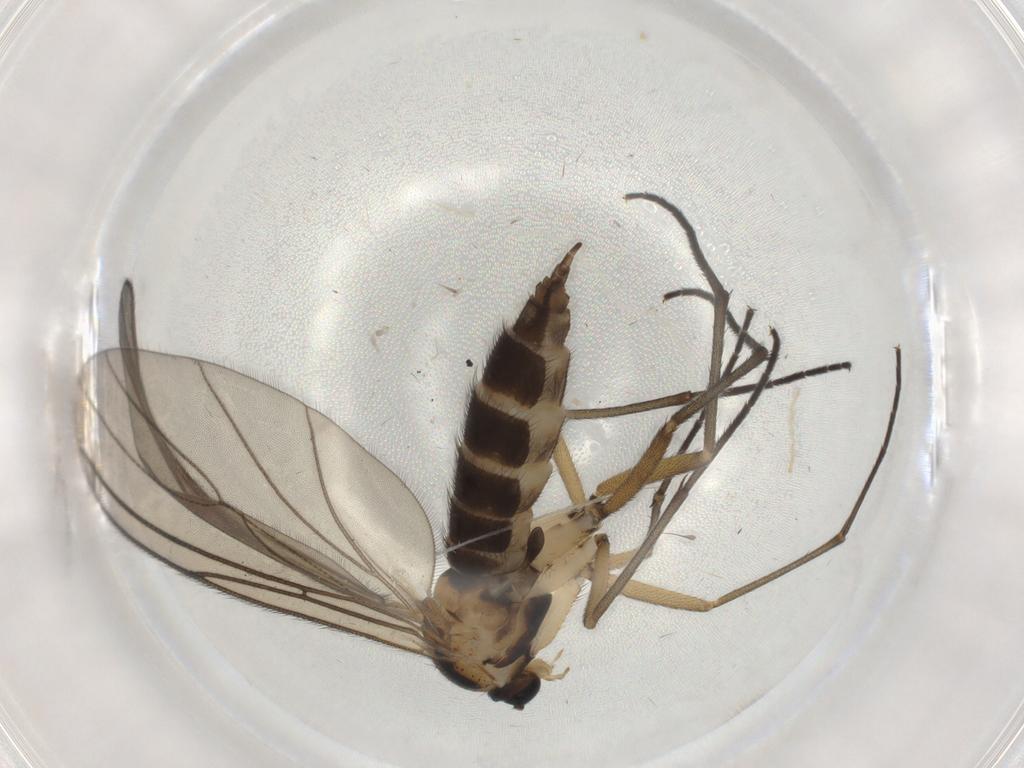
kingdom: Animalia
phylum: Arthropoda
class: Insecta
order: Diptera
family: Sciaridae
